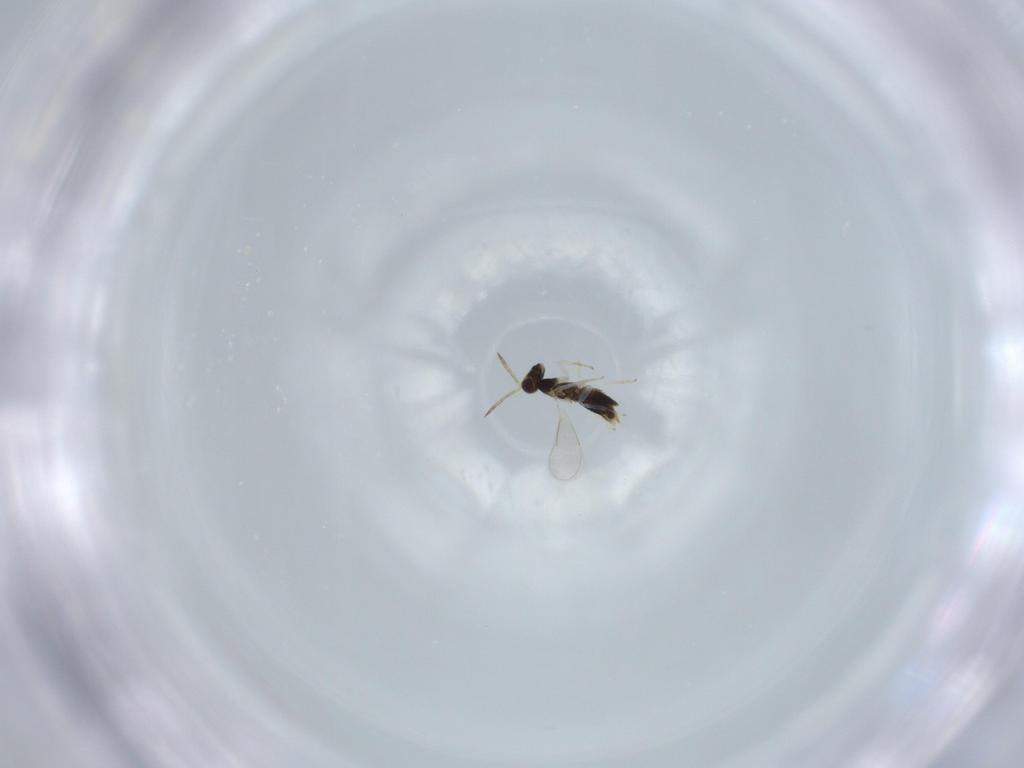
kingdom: Animalia
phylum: Arthropoda
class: Insecta
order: Hymenoptera
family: Aphelinidae
